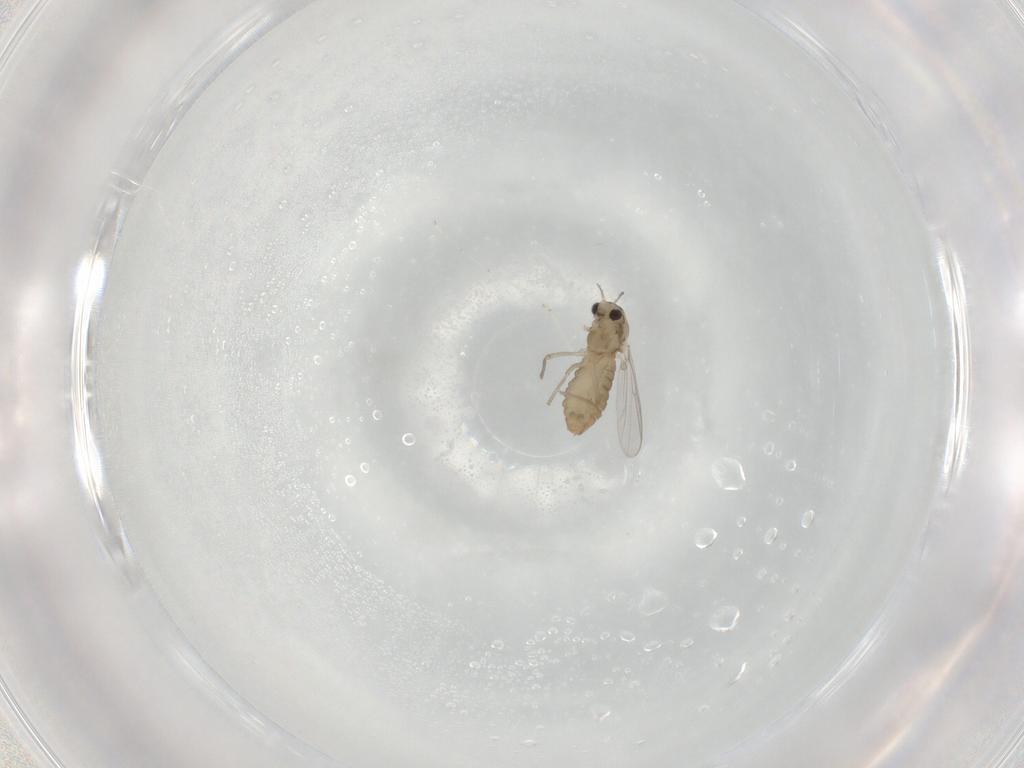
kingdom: Animalia
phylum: Arthropoda
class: Insecta
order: Diptera
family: Chironomidae
